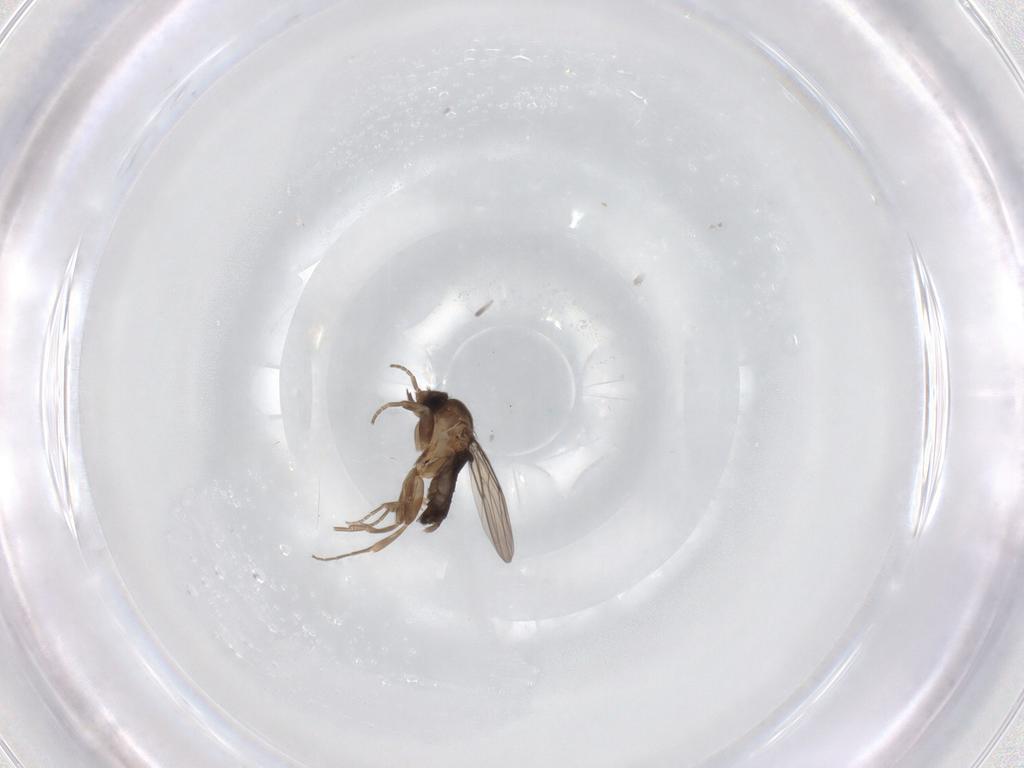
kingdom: Animalia
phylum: Arthropoda
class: Insecta
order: Diptera
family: Phoridae
